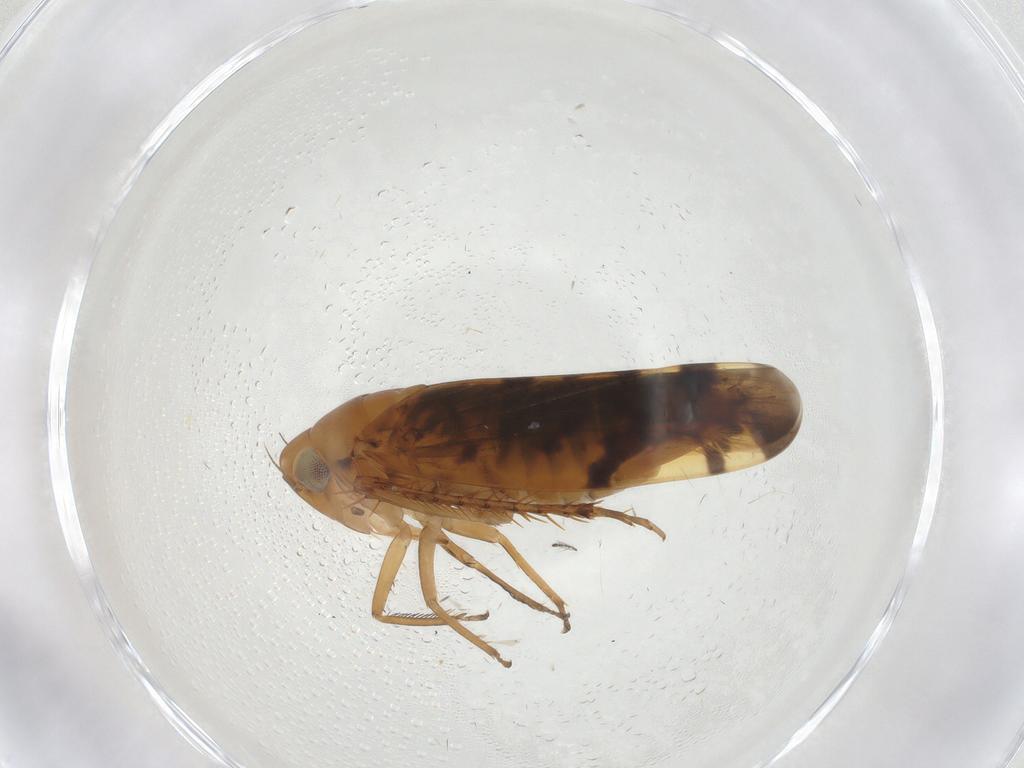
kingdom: Animalia
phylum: Arthropoda
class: Insecta
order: Hemiptera
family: Cicadellidae
